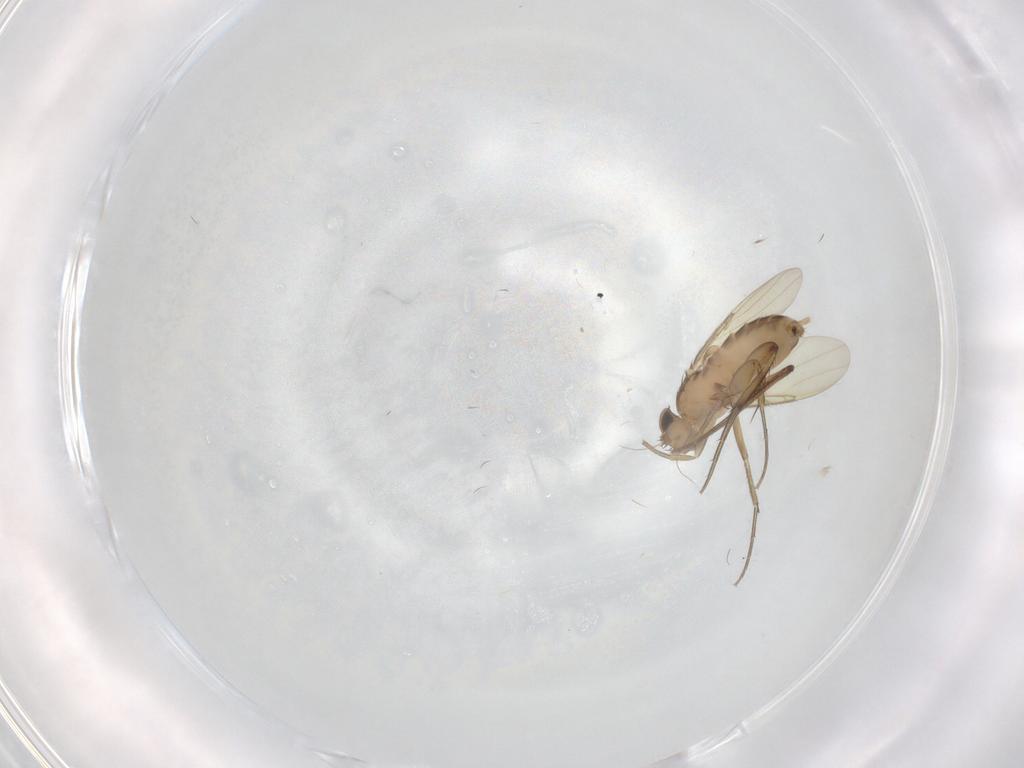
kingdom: Animalia
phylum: Arthropoda
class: Insecta
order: Diptera
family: Phoridae
